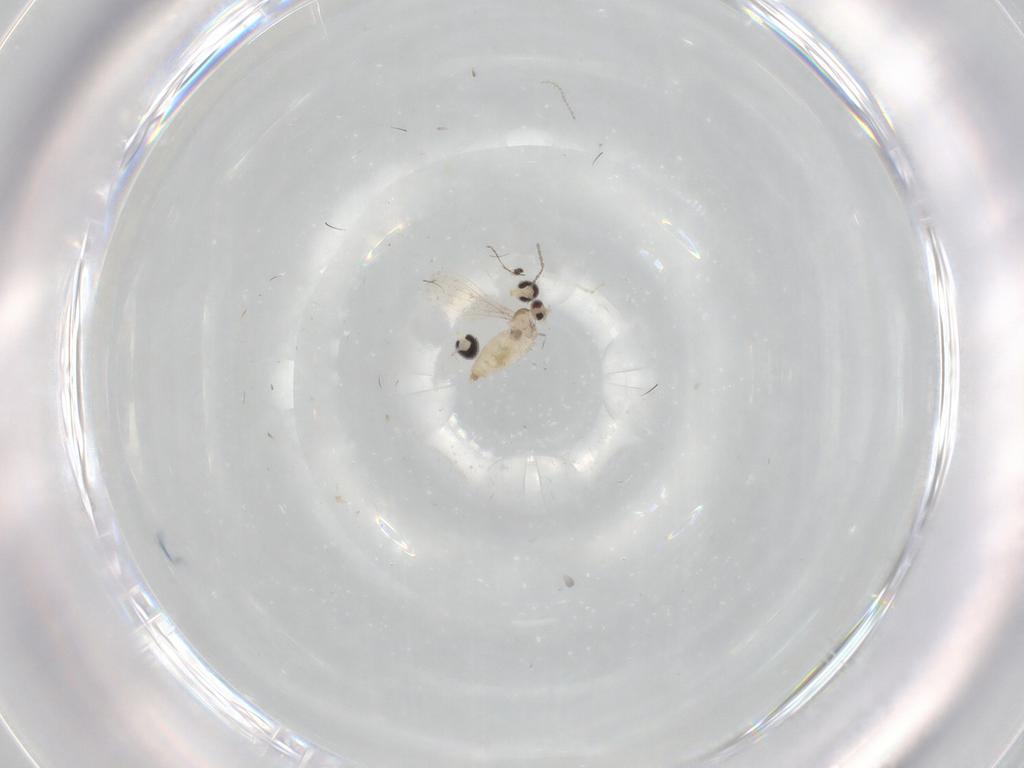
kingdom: Animalia
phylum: Arthropoda
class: Insecta
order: Diptera
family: Cecidomyiidae
